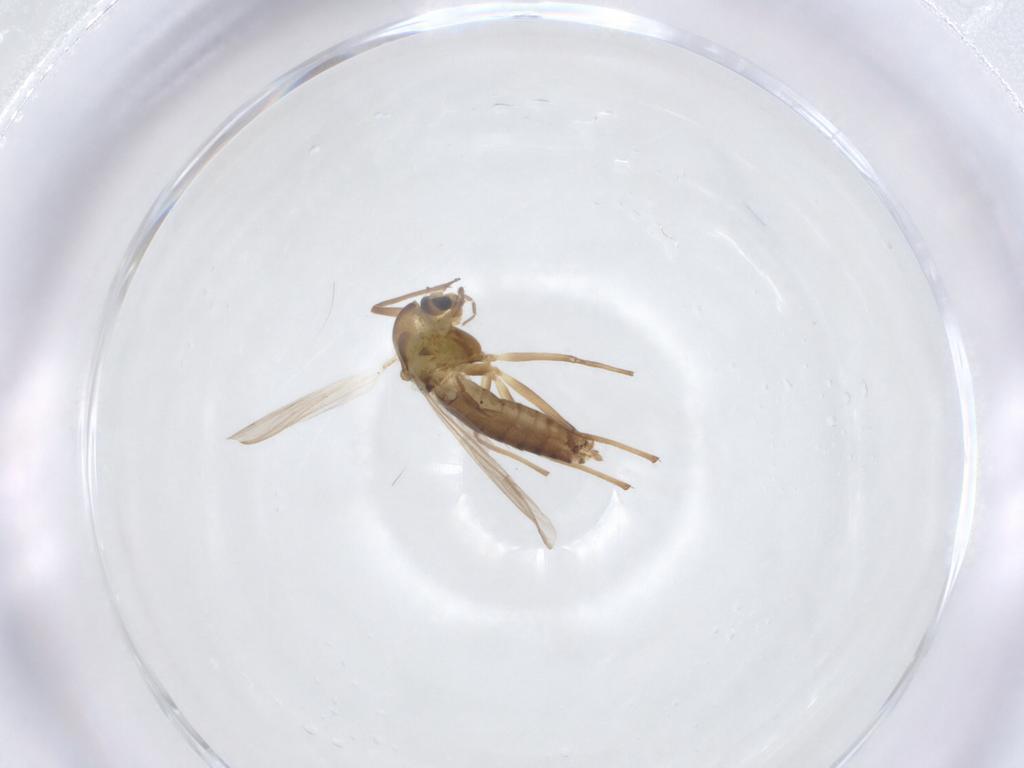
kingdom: Animalia
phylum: Arthropoda
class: Insecta
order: Diptera
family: Chironomidae
